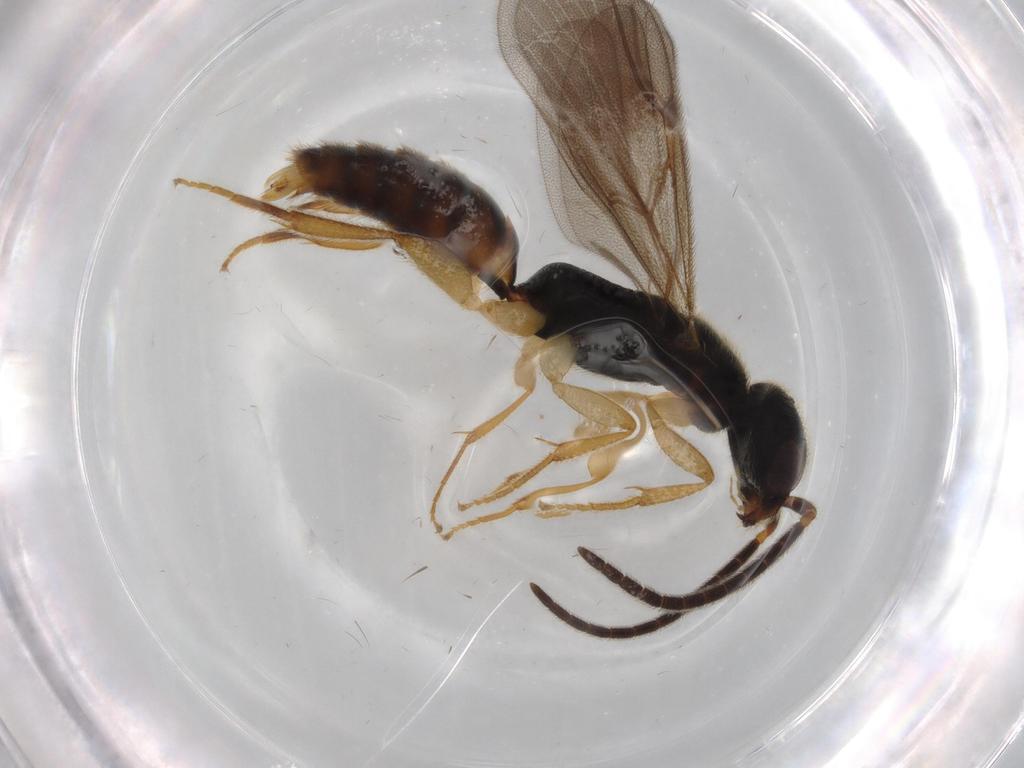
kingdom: Animalia
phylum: Arthropoda
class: Insecta
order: Hymenoptera
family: Bethylidae
